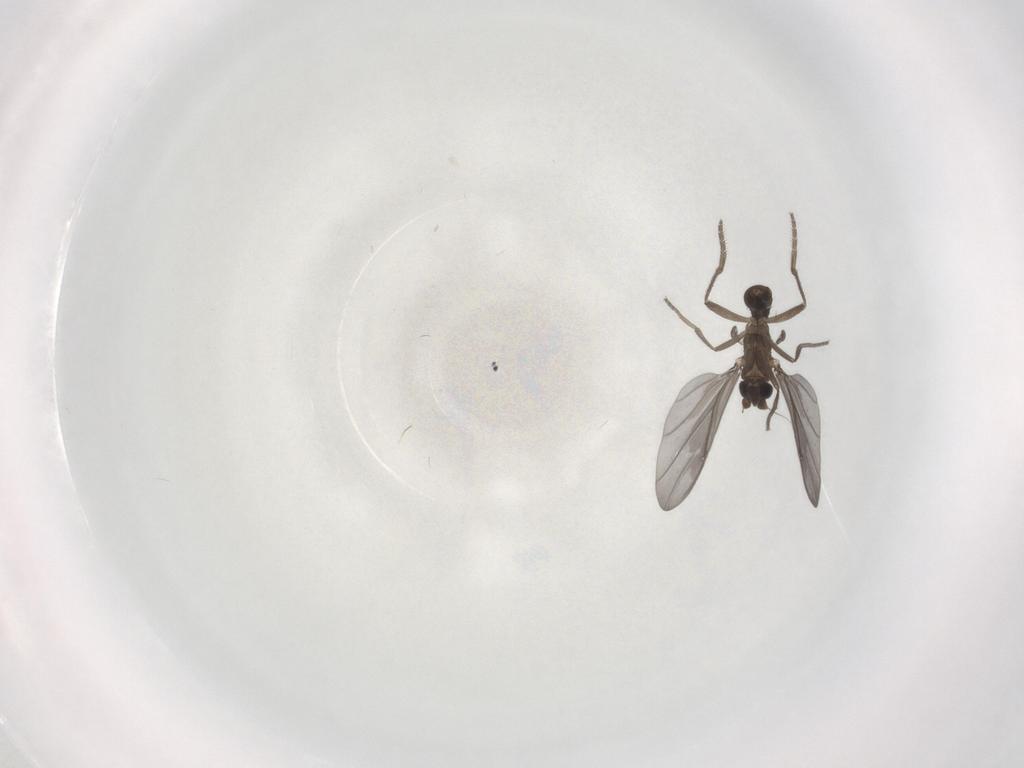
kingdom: Animalia
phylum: Arthropoda
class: Insecta
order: Diptera
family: Phoridae
